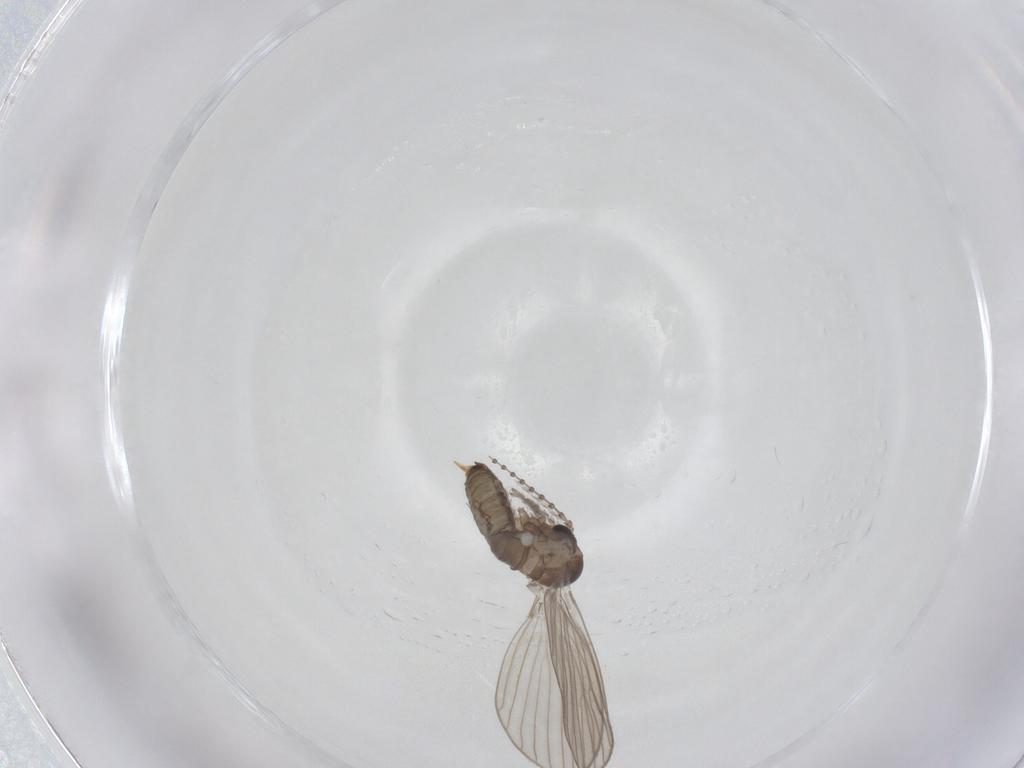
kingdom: Animalia
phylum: Arthropoda
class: Insecta
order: Diptera
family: Psychodidae
